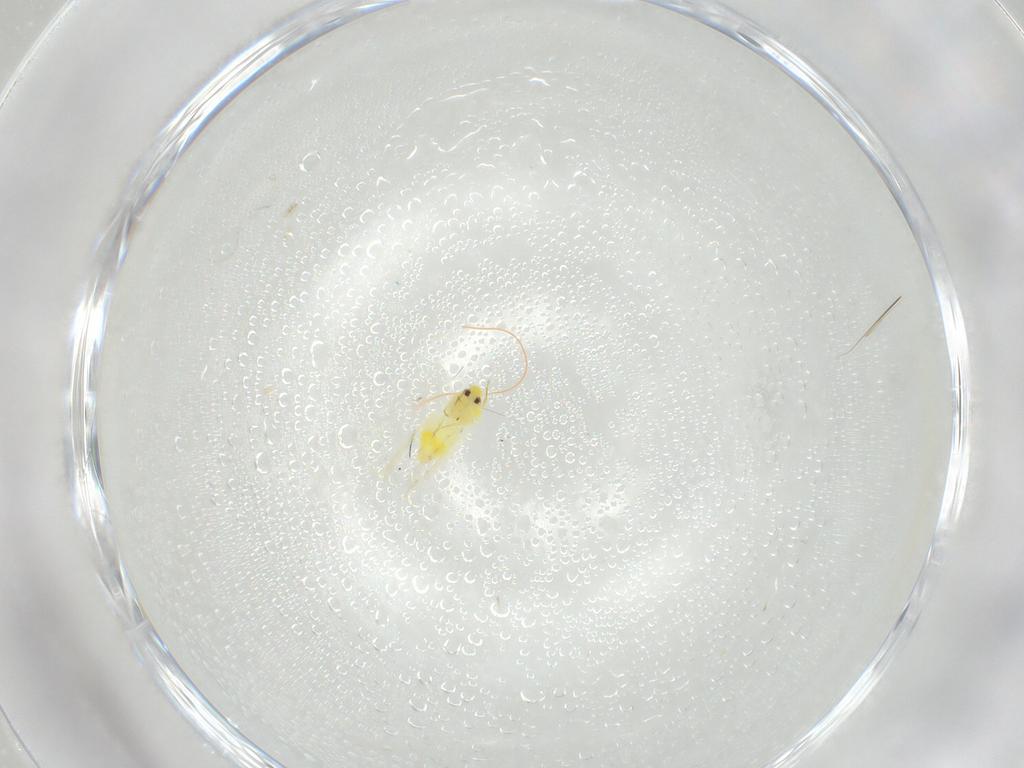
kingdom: Animalia
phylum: Arthropoda
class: Insecta
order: Hemiptera
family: Aleyrodidae
